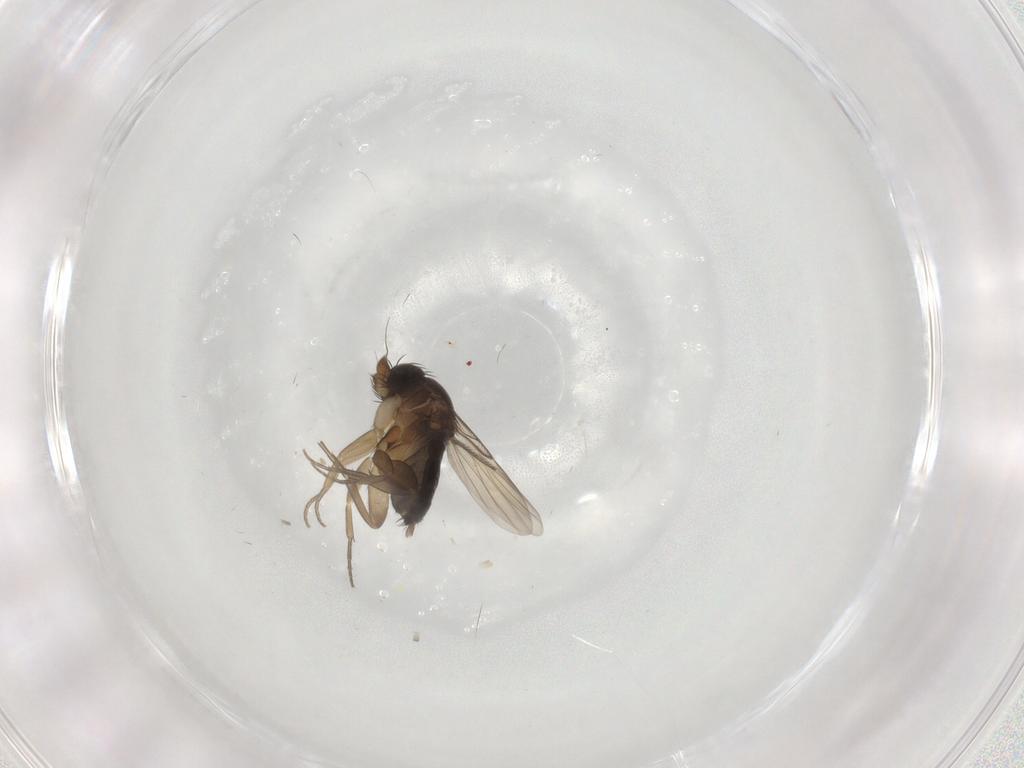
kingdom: Animalia
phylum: Arthropoda
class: Insecta
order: Diptera
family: Phoridae
